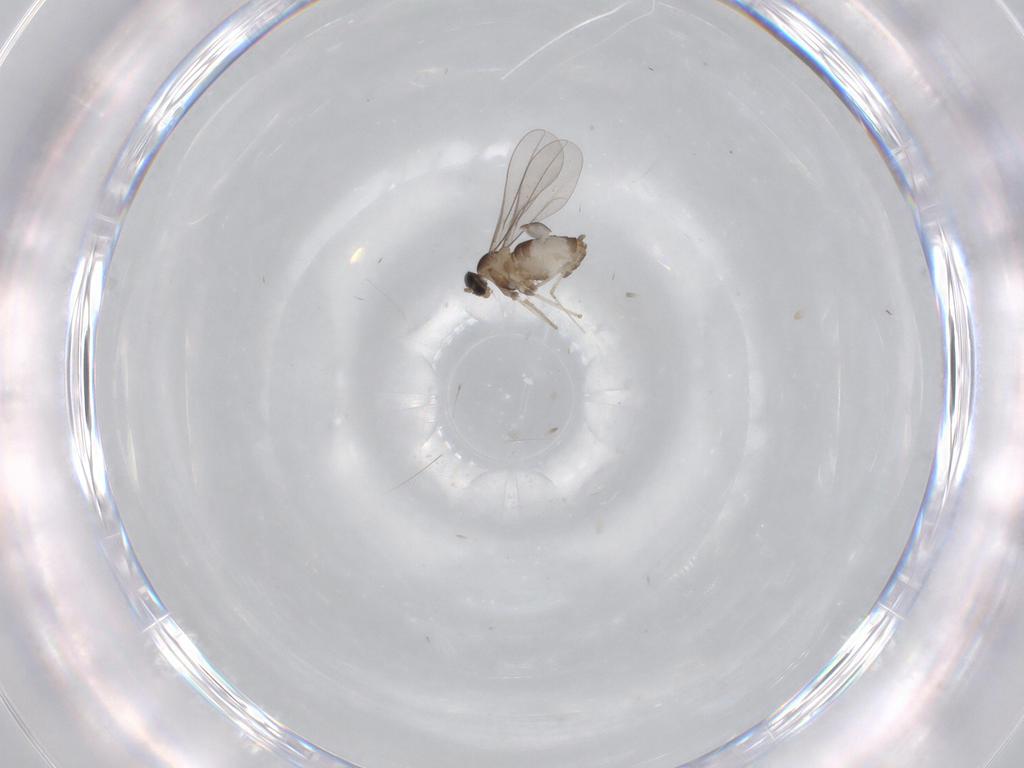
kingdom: Animalia
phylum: Arthropoda
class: Insecta
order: Diptera
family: Cecidomyiidae
